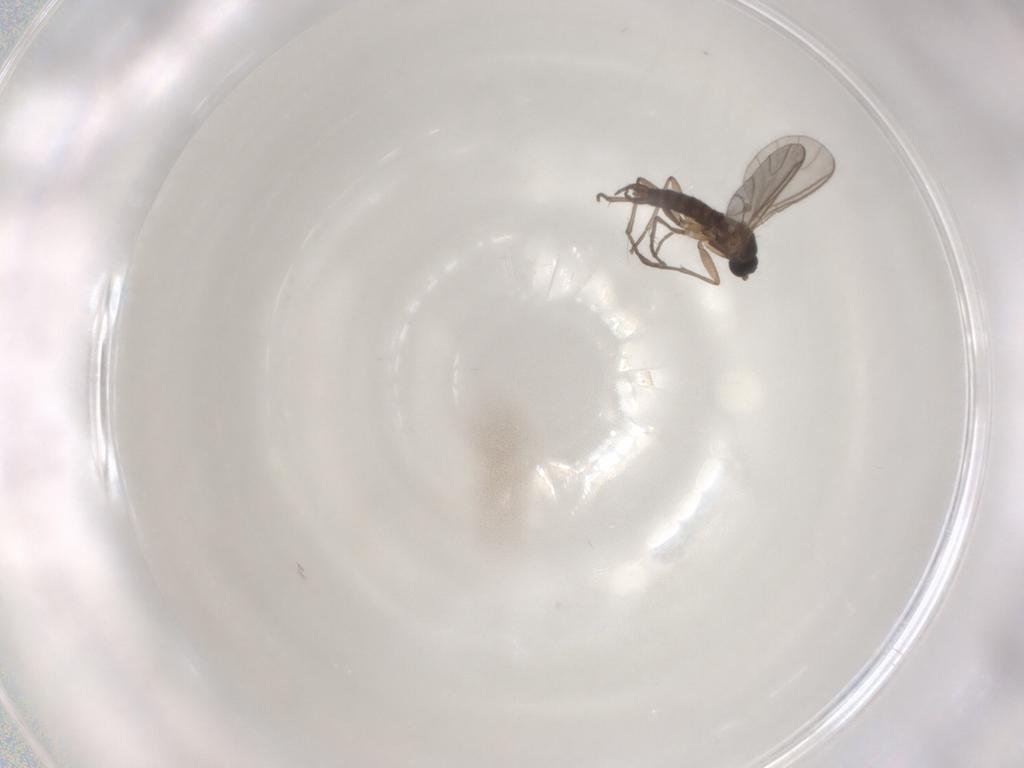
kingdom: Animalia
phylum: Arthropoda
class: Insecta
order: Diptera
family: Sciaridae
